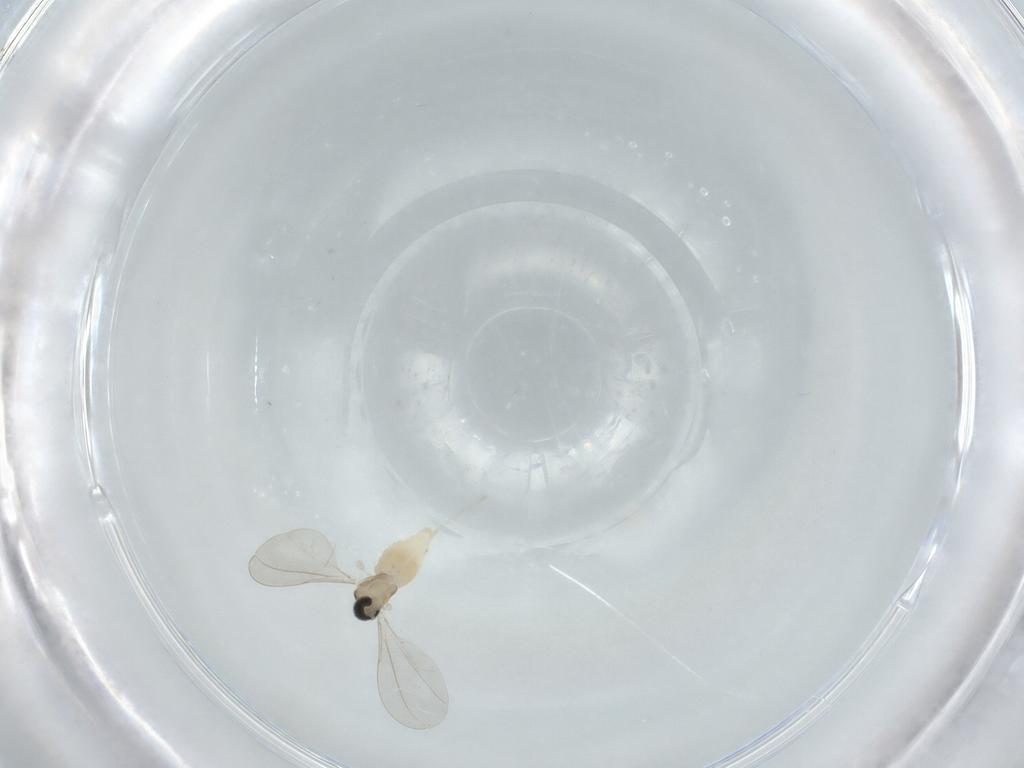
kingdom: Animalia
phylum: Arthropoda
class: Insecta
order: Diptera
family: Cecidomyiidae
